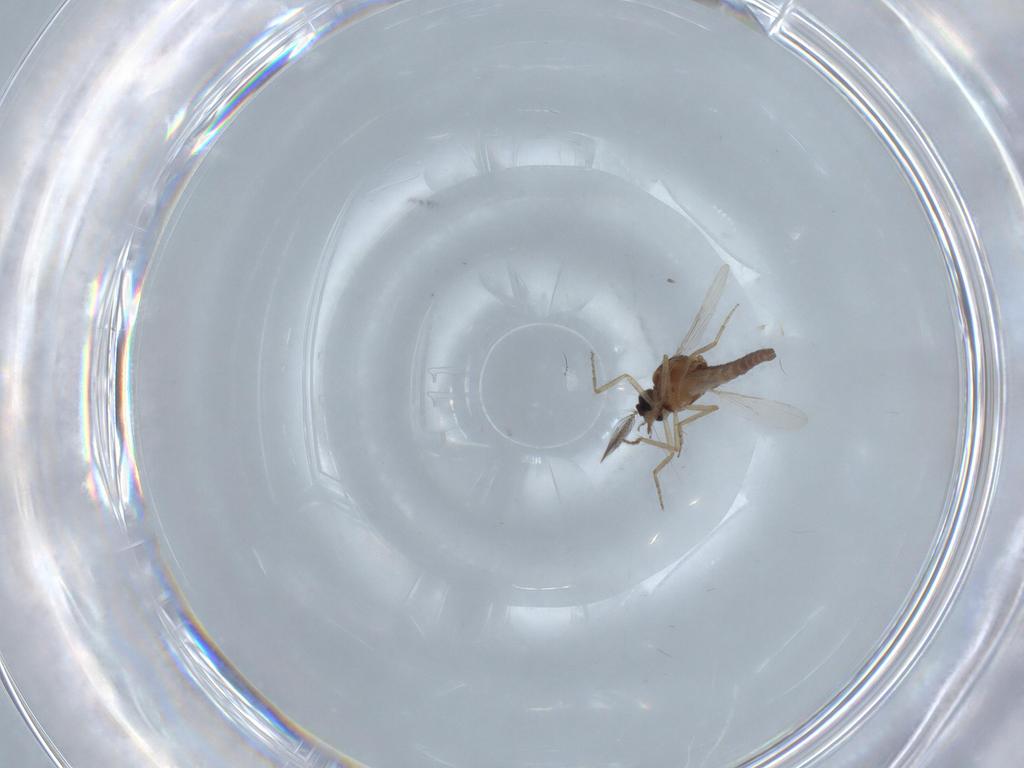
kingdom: Animalia
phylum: Arthropoda
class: Insecta
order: Diptera
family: Ceratopogonidae
